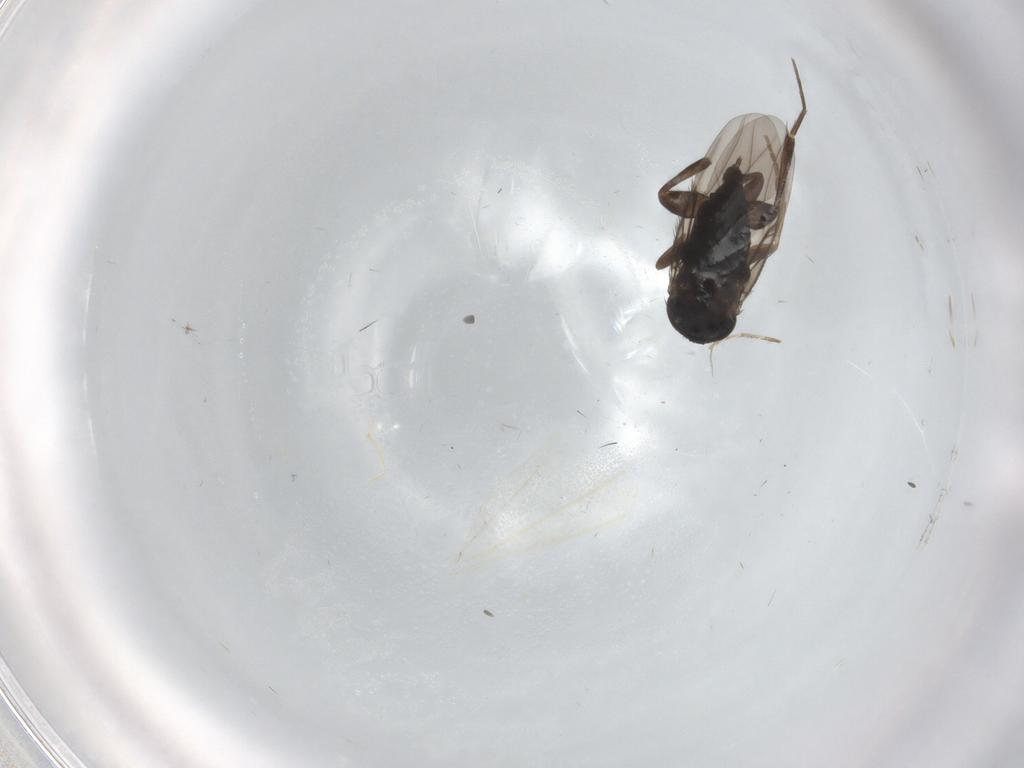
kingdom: Animalia
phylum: Arthropoda
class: Insecta
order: Diptera
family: Phoridae
